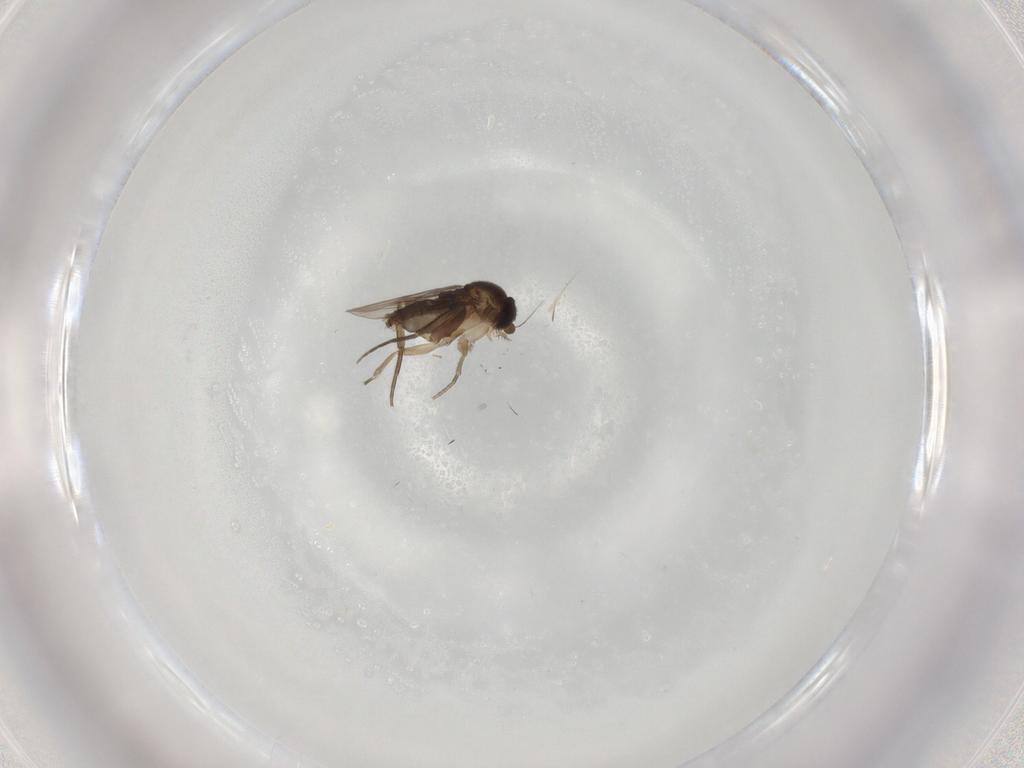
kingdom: Animalia
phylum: Arthropoda
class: Insecta
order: Diptera
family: Phoridae
